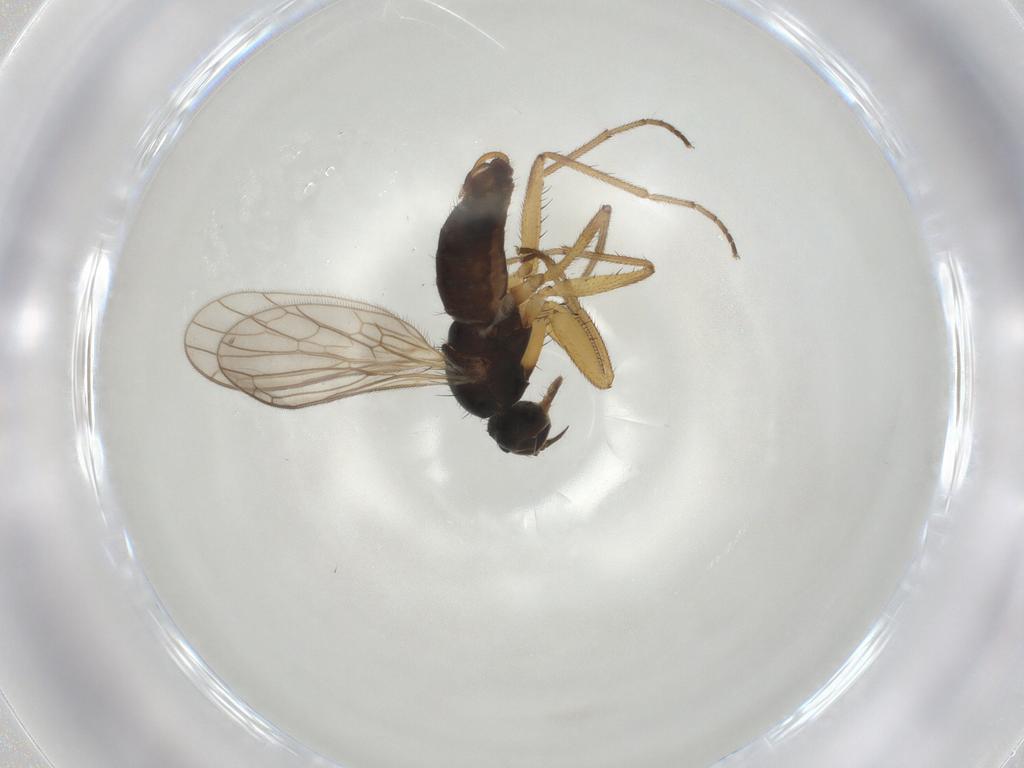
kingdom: Animalia
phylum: Arthropoda
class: Insecta
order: Diptera
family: Sciaridae
